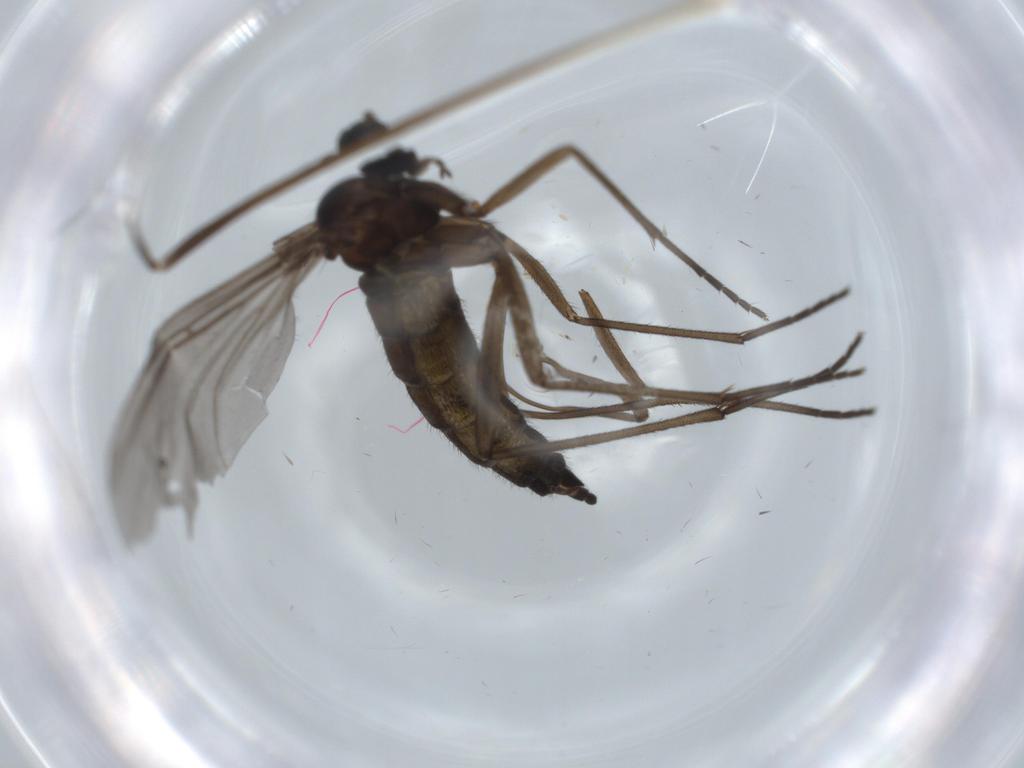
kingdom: Animalia
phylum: Arthropoda
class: Insecta
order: Diptera
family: Sciaridae
